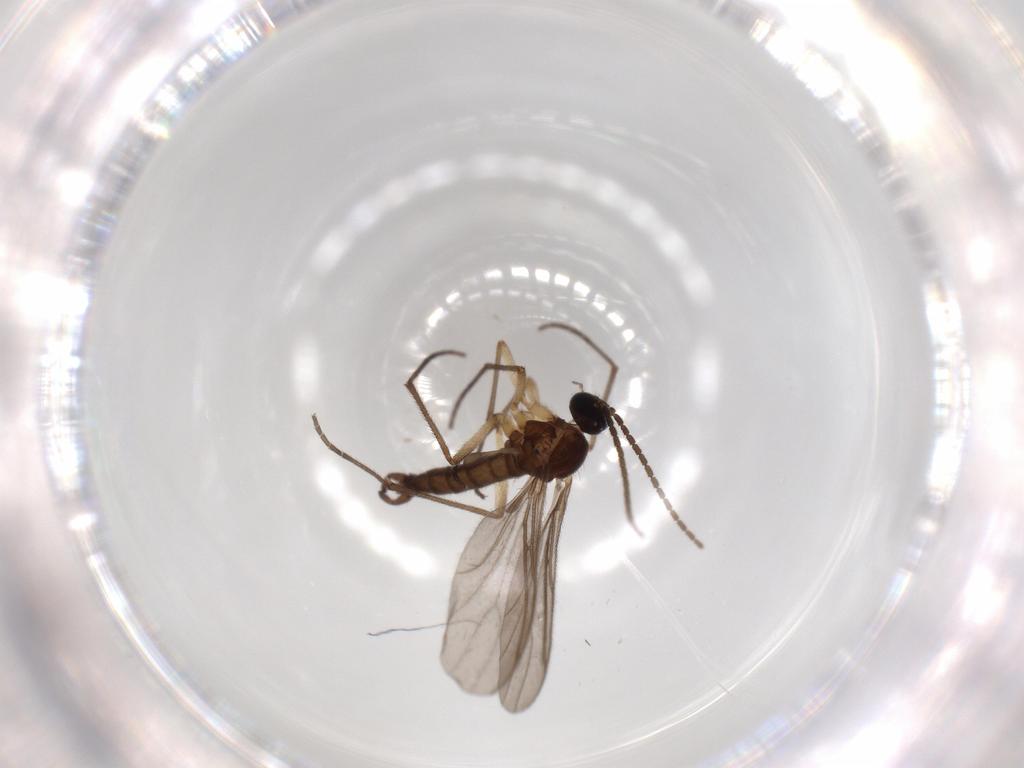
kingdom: Animalia
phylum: Arthropoda
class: Insecta
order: Diptera
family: Sciaridae
